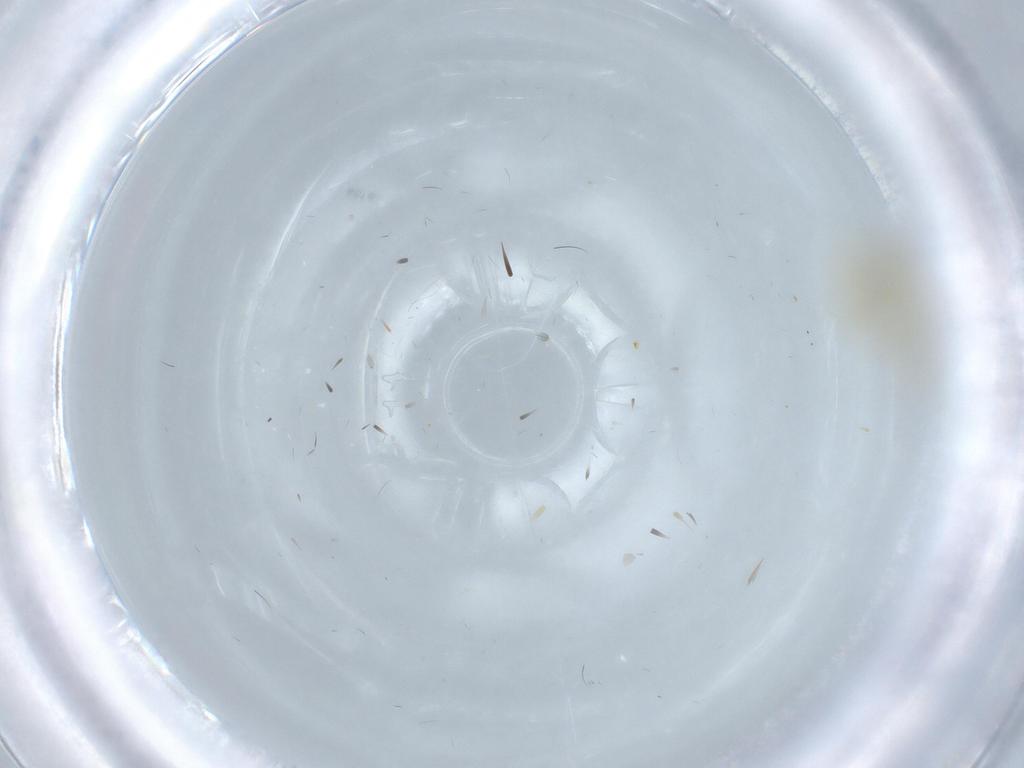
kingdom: Animalia
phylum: Arthropoda
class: Insecta
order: Hemiptera
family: Cicadellidae
